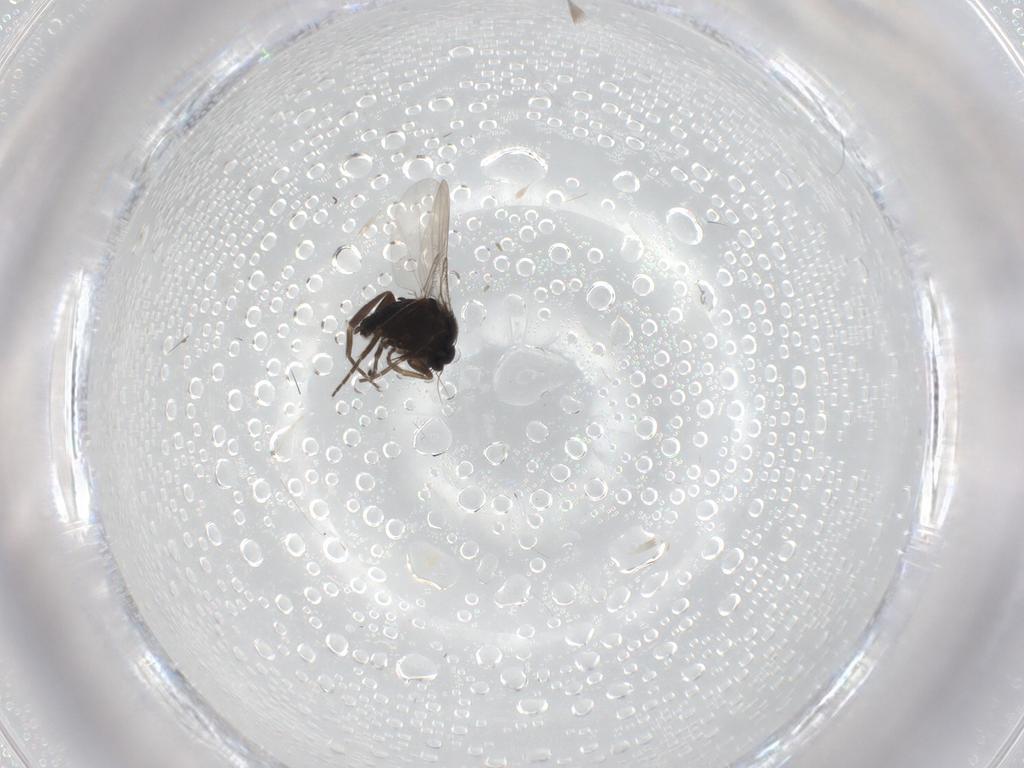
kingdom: Animalia
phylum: Arthropoda
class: Insecta
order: Diptera
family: Phoridae
